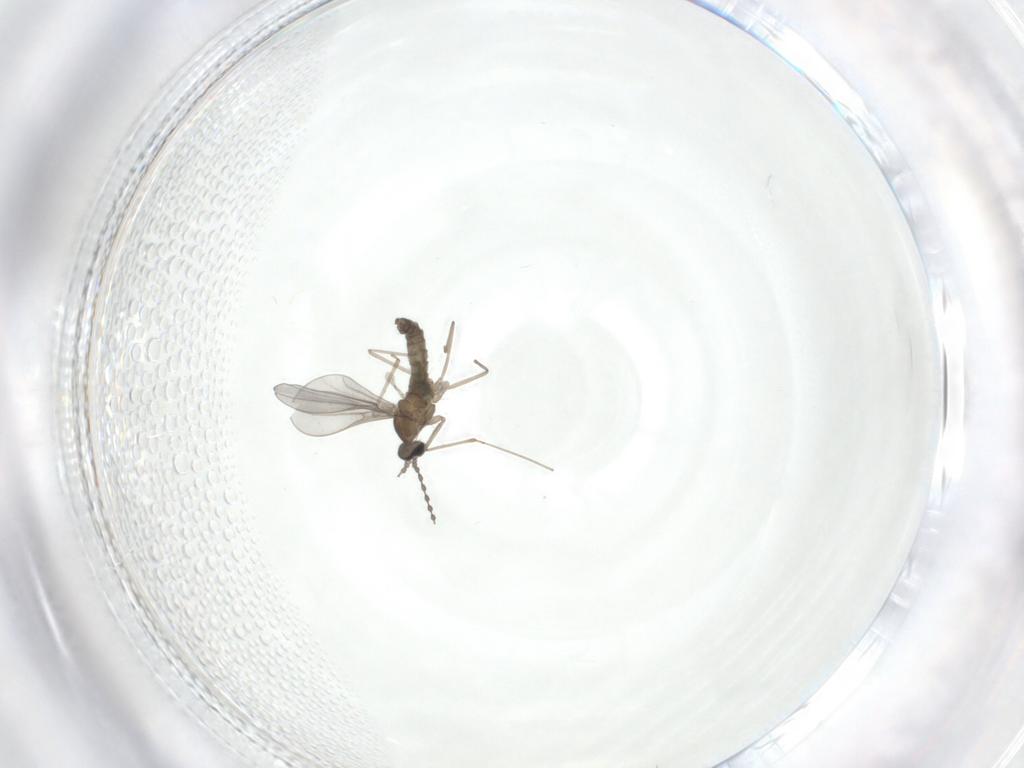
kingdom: Animalia
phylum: Arthropoda
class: Insecta
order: Diptera
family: Cecidomyiidae
